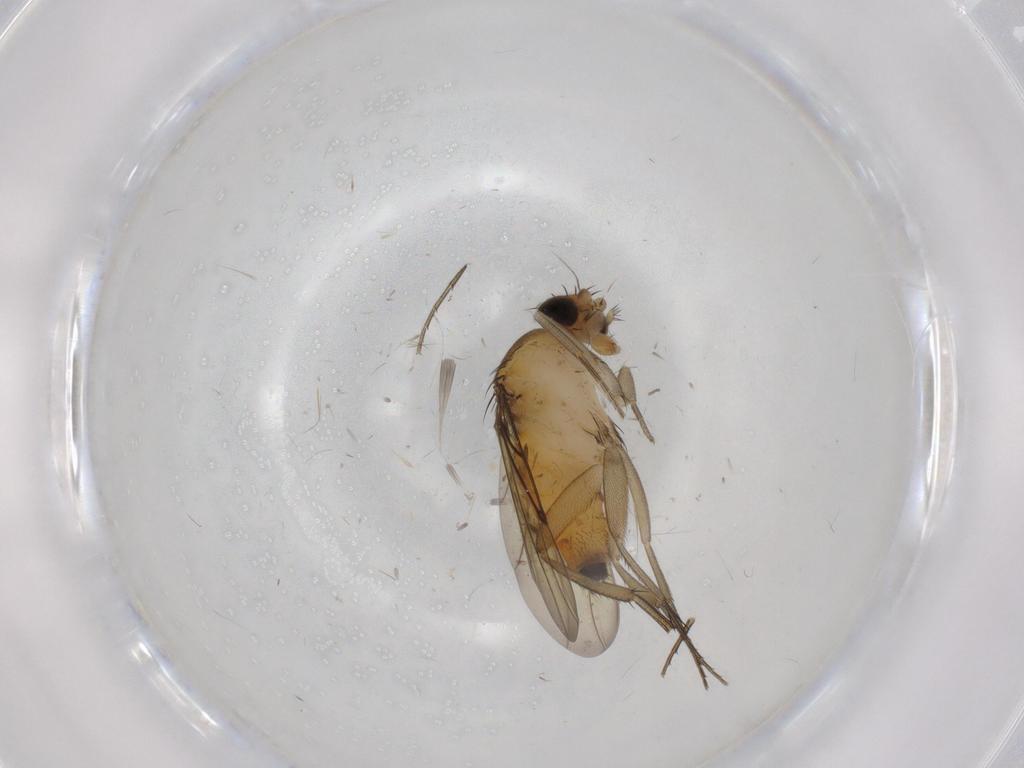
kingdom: Animalia
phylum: Arthropoda
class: Insecta
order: Diptera
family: Phoridae
